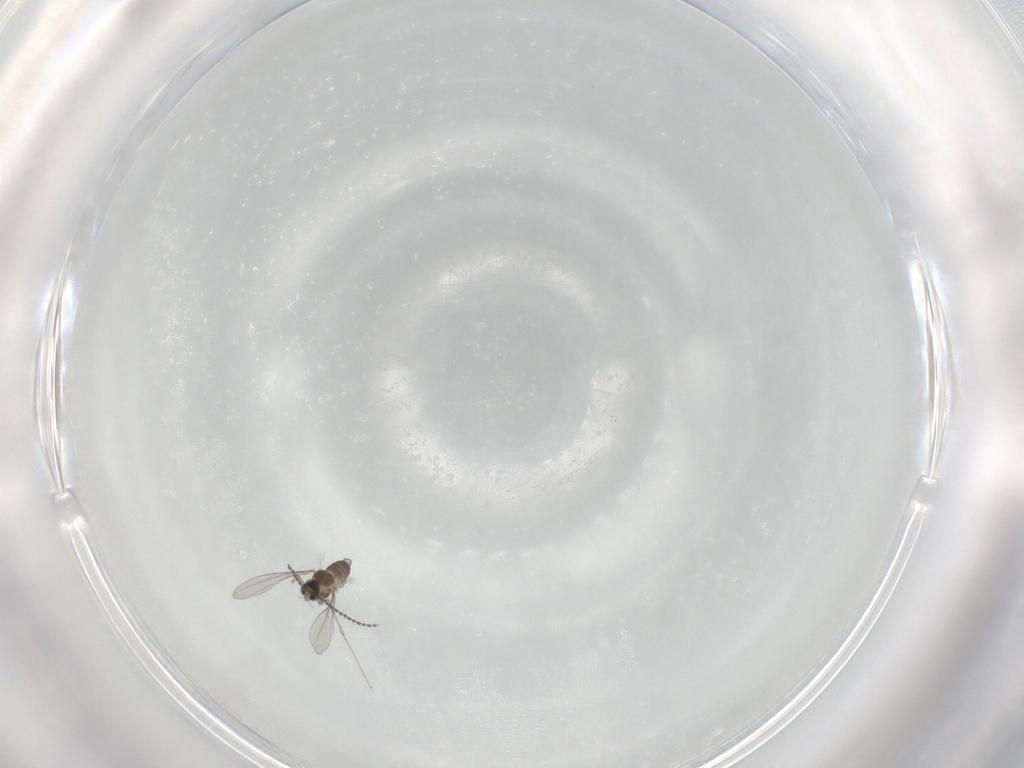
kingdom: Animalia
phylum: Arthropoda
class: Insecta
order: Diptera
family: Cecidomyiidae
